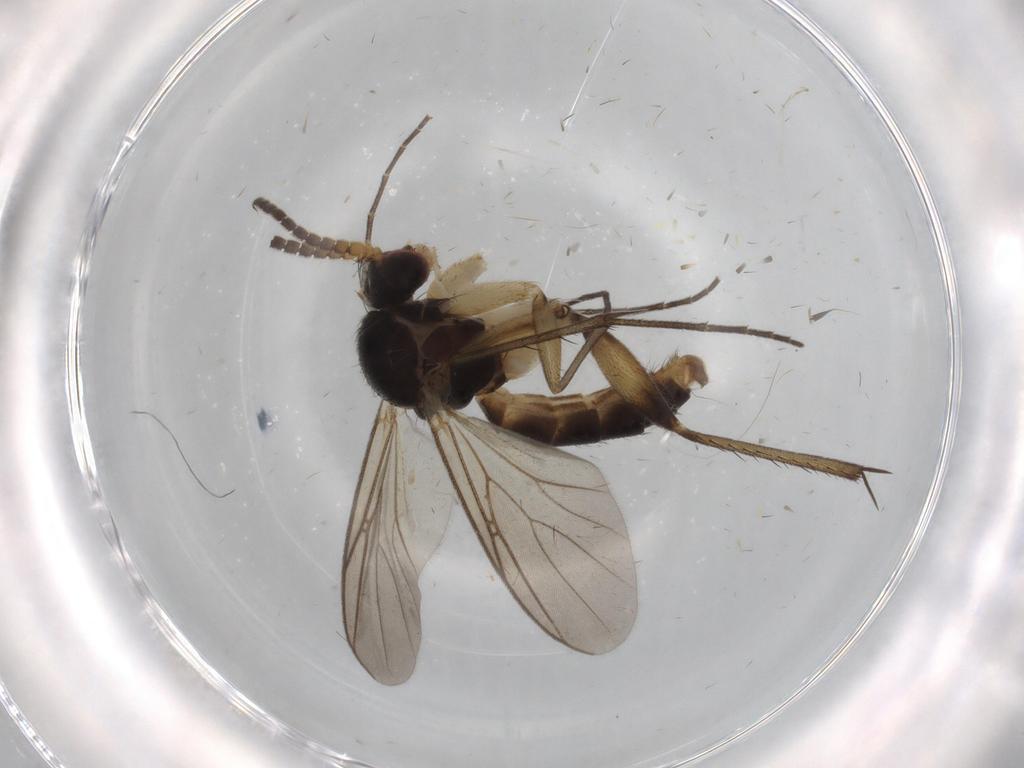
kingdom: Animalia
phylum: Arthropoda
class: Insecta
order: Diptera
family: Mycetophilidae
